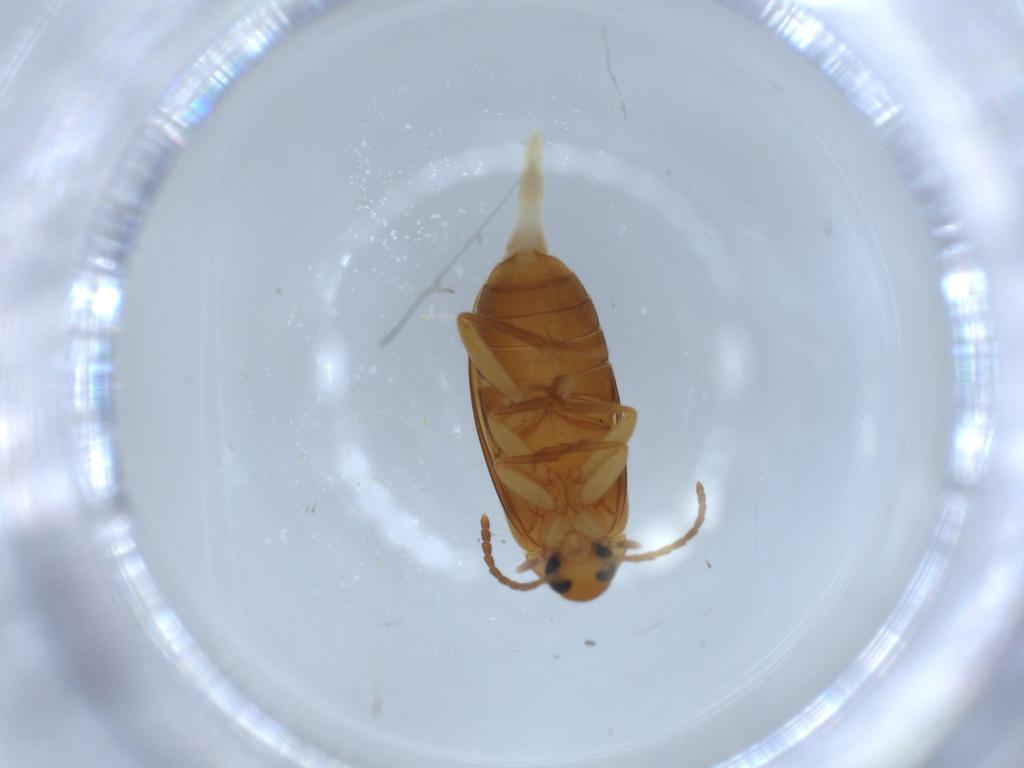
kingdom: Animalia
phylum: Arthropoda
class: Insecta
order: Coleoptera
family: Scraptiidae
